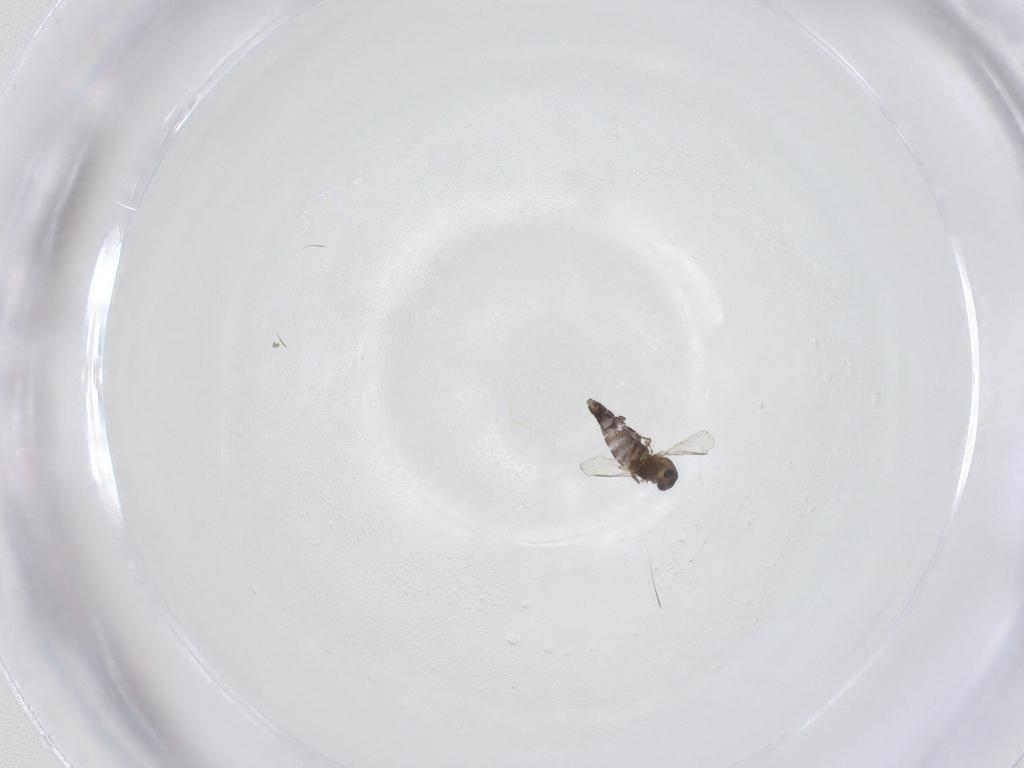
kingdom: Animalia
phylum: Arthropoda
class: Insecta
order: Diptera
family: Chironomidae
